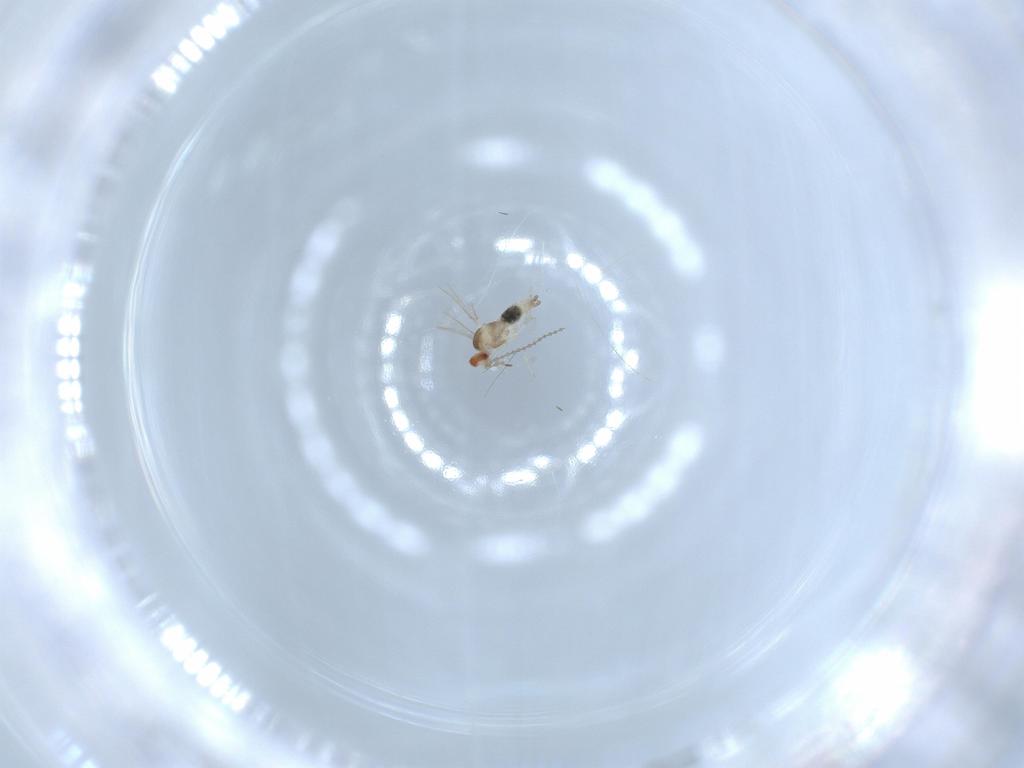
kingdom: Animalia
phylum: Arthropoda
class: Insecta
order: Diptera
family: Cecidomyiidae
